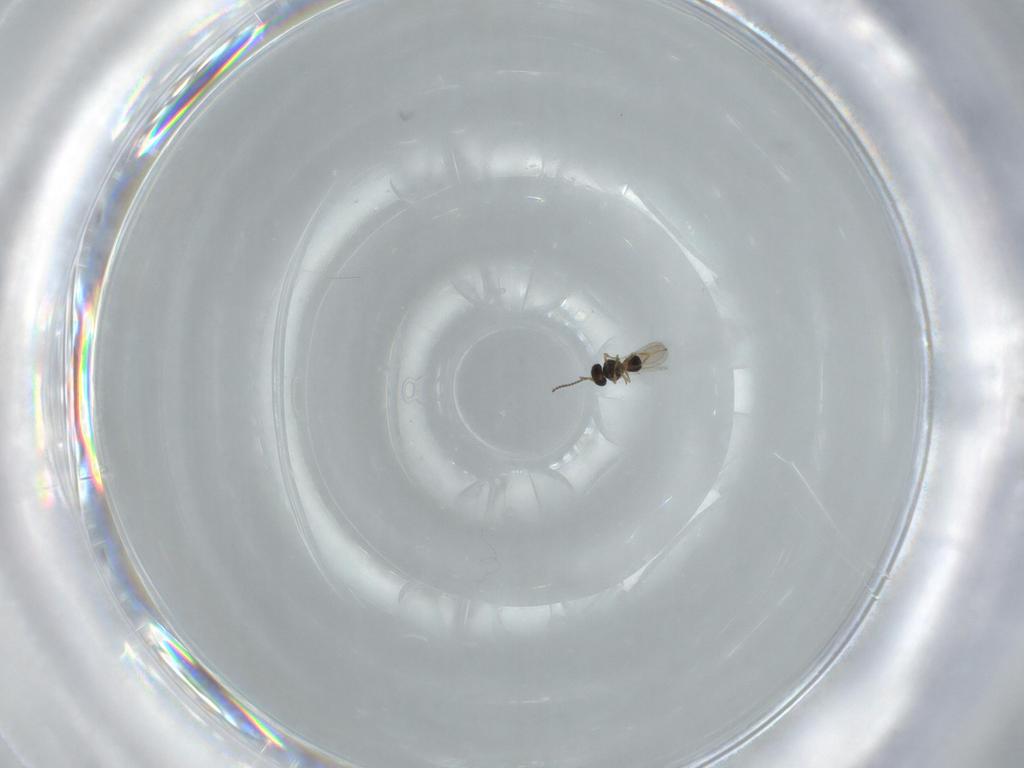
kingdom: Animalia
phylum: Arthropoda
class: Insecta
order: Hymenoptera
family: Scelionidae
